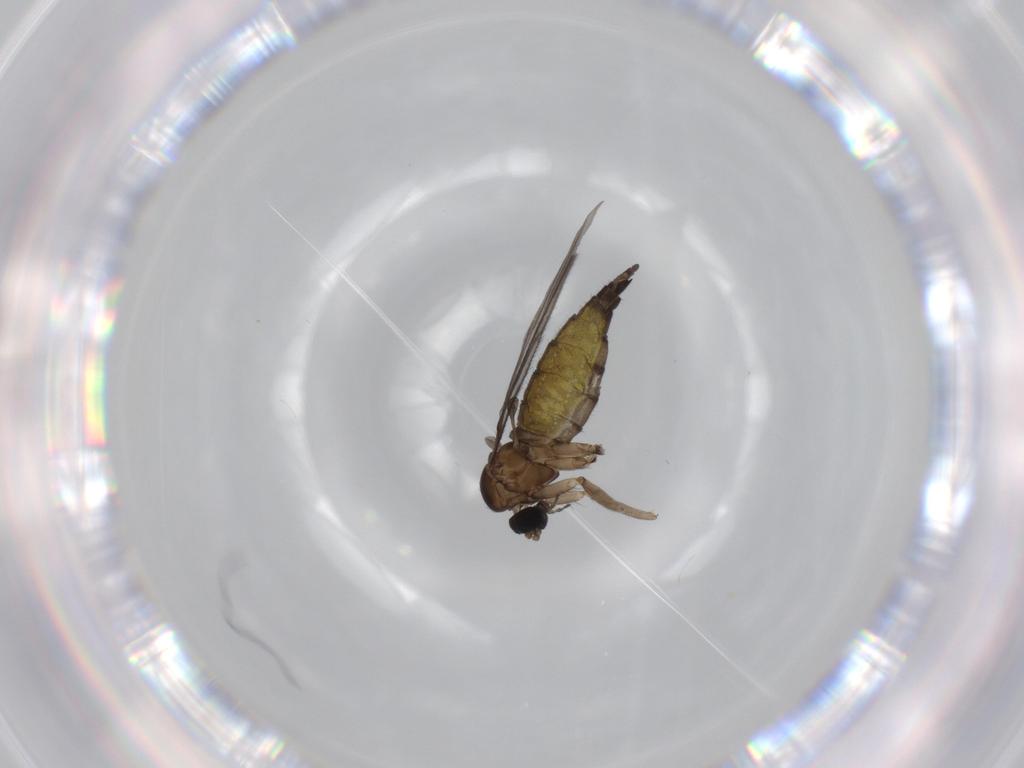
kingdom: Animalia
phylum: Arthropoda
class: Insecta
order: Diptera
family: Sciaridae
